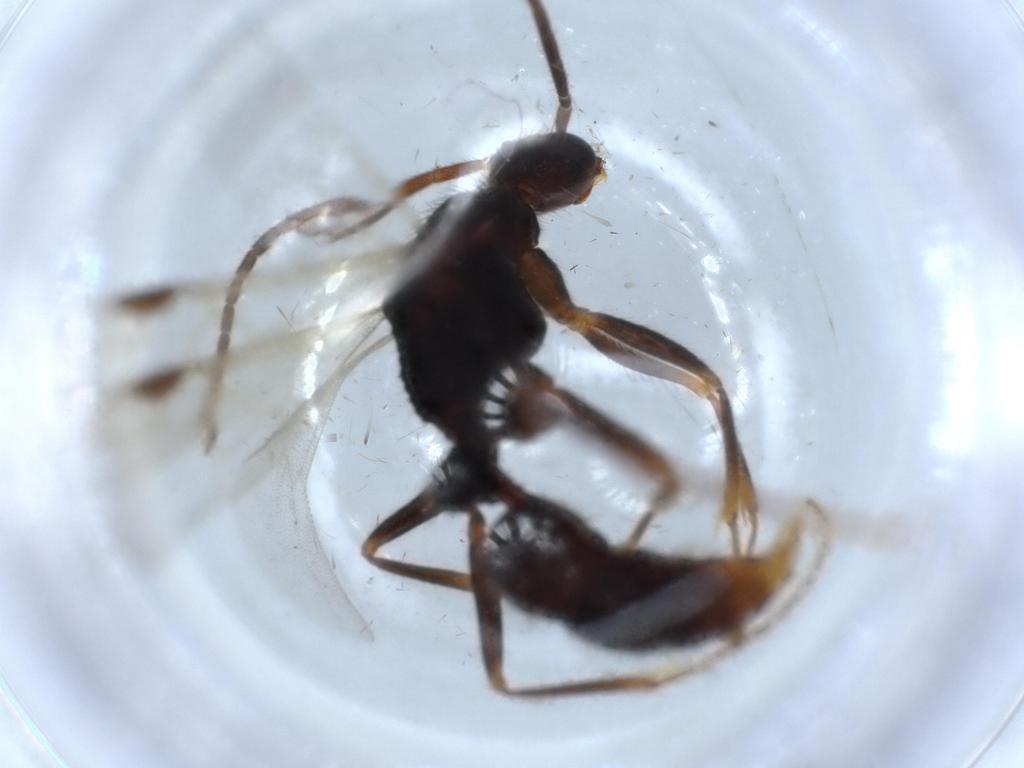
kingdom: Animalia
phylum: Arthropoda
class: Insecta
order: Hymenoptera
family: Formicidae
